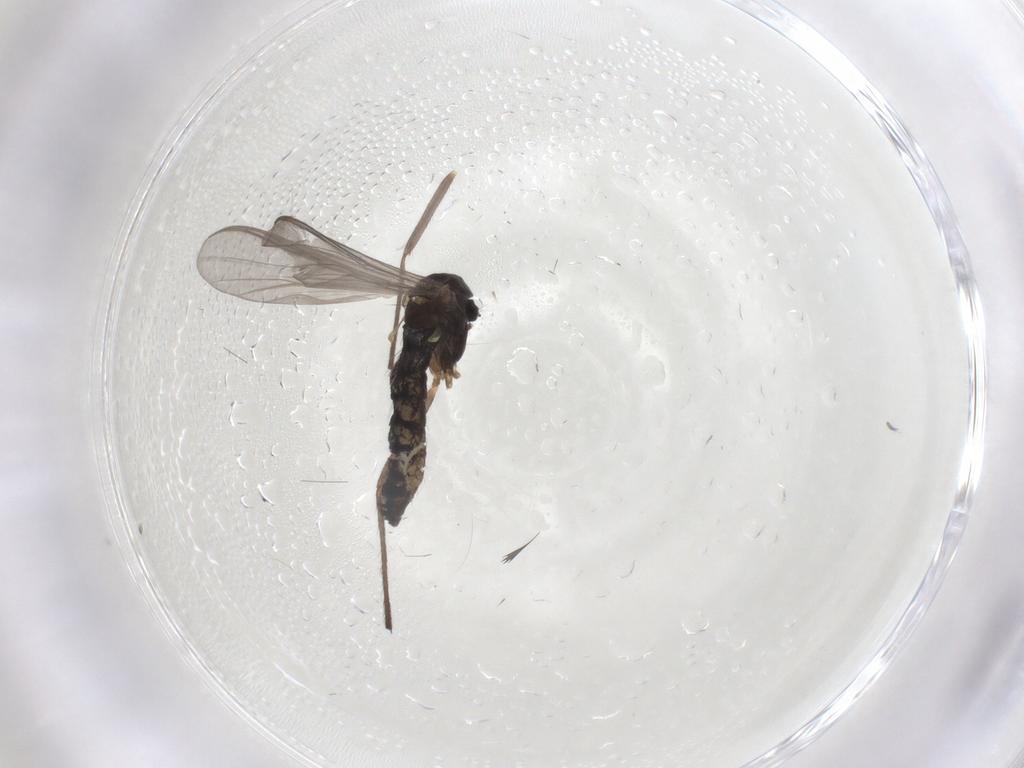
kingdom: Animalia
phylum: Arthropoda
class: Insecta
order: Diptera
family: Chironomidae
